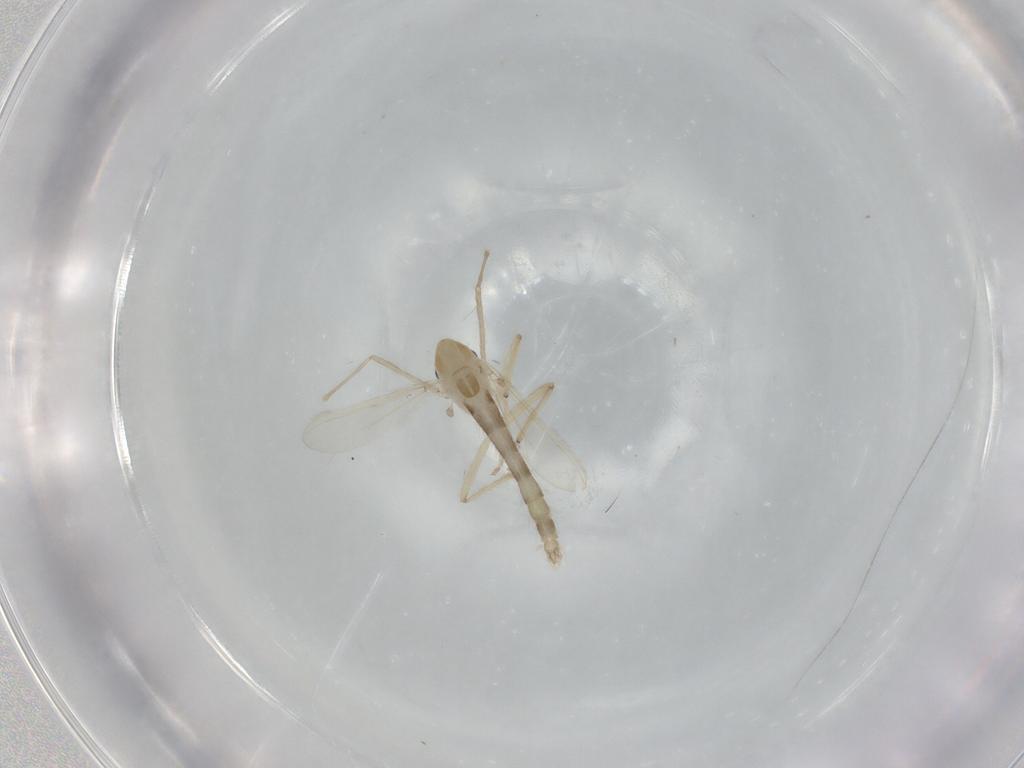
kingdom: Animalia
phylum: Arthropoda
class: Insecta
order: Diptera
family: Chironomidae
